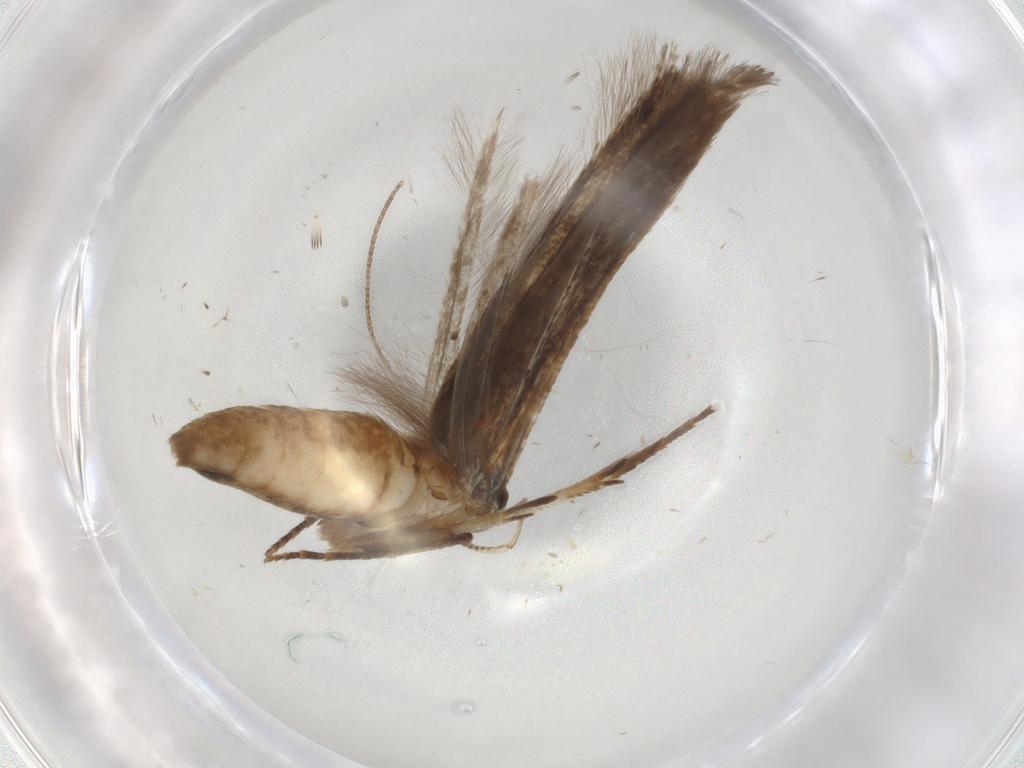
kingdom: Animalia
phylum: Arthropoda
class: Insecta
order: Lepidoptera
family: Cosmopterigidae
